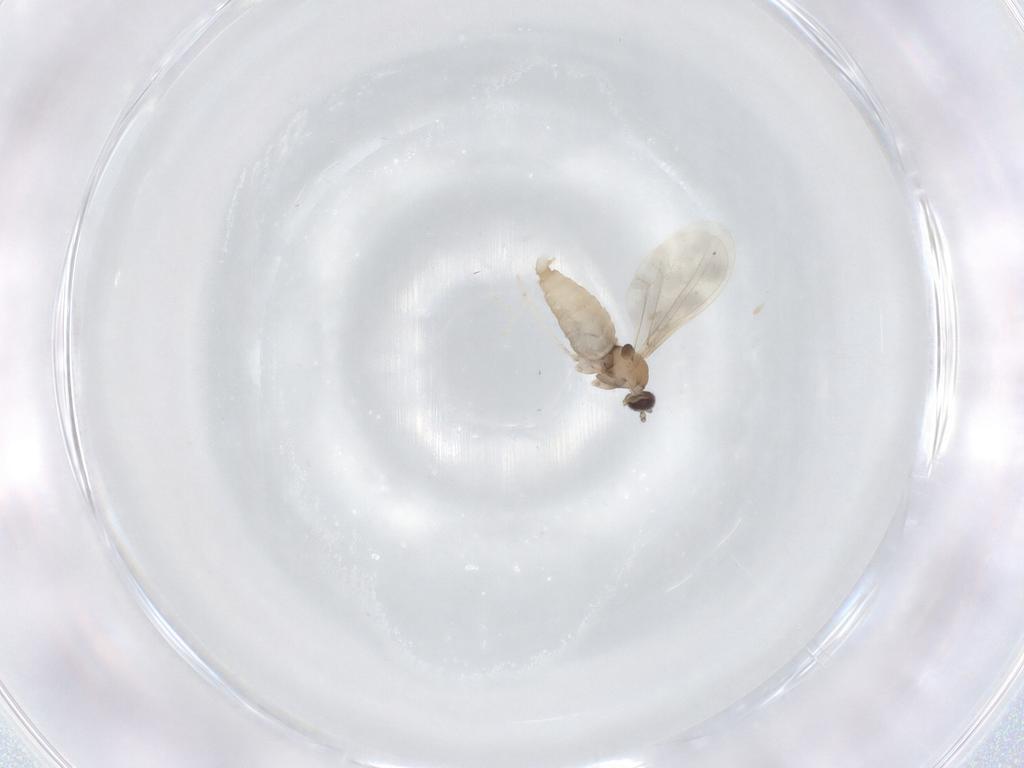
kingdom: Animalia
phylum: Arthropoda
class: Insecta
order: Diptera
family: Cecidomyiidae
